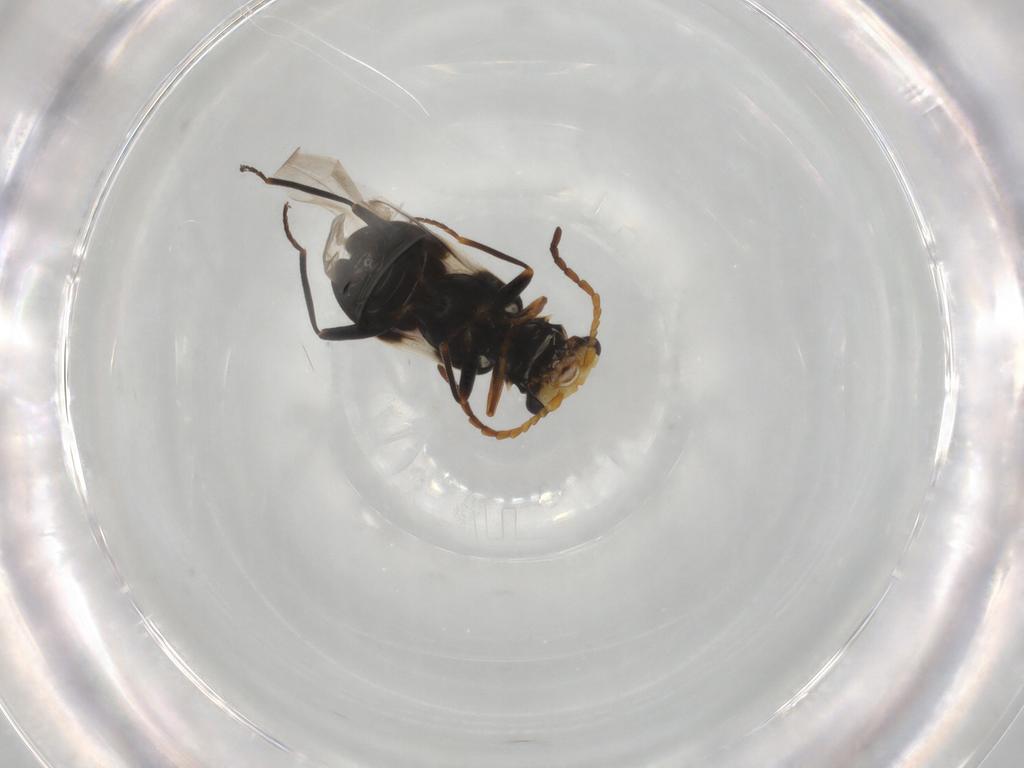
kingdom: Animalia
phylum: Arthropoda
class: Insecta
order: Coleoptera
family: Melyridae
